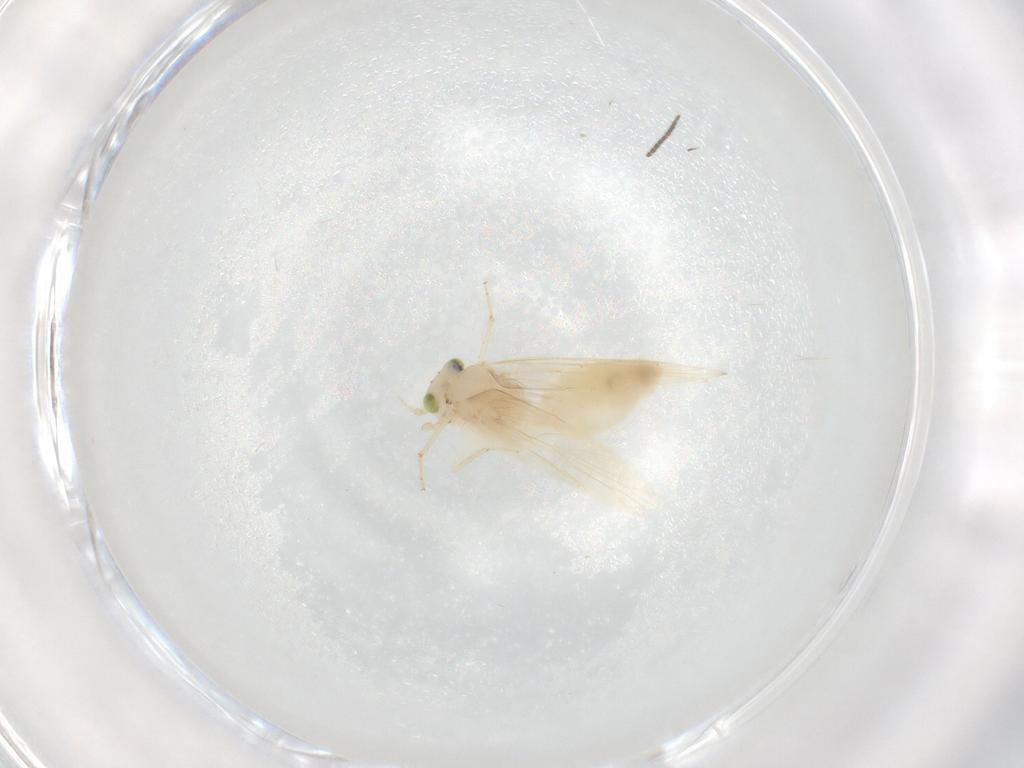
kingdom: Animalia
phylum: Arthropoda
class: Insecta
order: Psocodea
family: Lepidopsocidae
